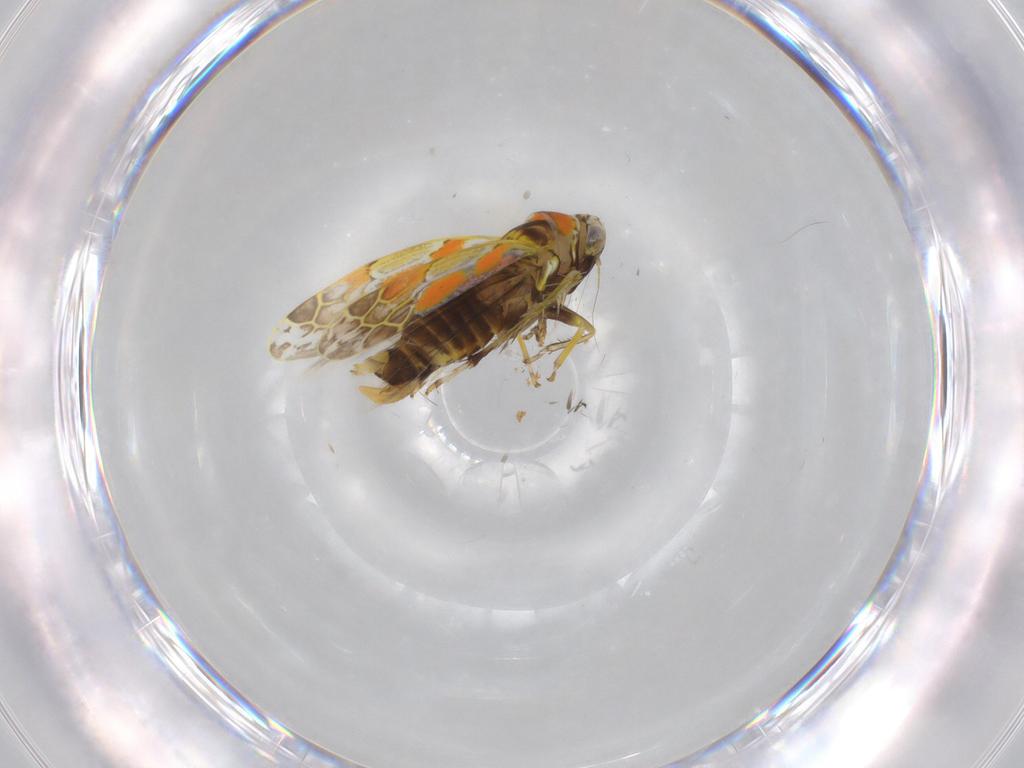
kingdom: Animalia
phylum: Arthropoda
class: Insecta
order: Hemiptera
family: Cicadellidae
